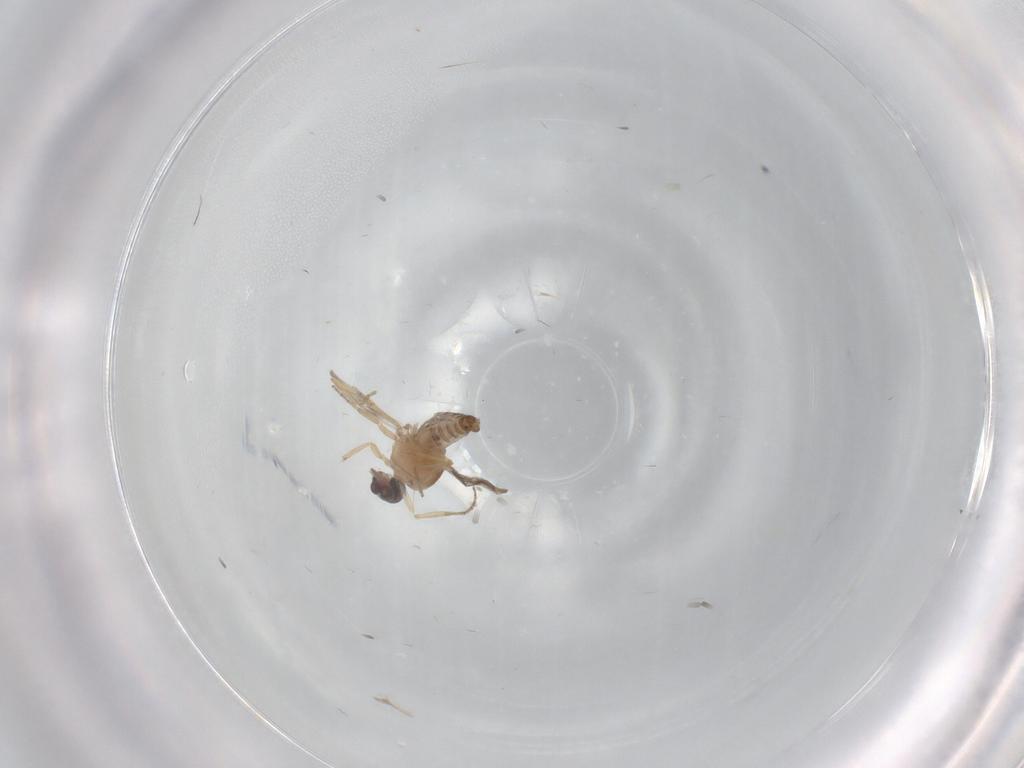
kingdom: Animalia
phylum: Arthropoda
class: Insecta
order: Diptera
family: Ceratopogonidae
